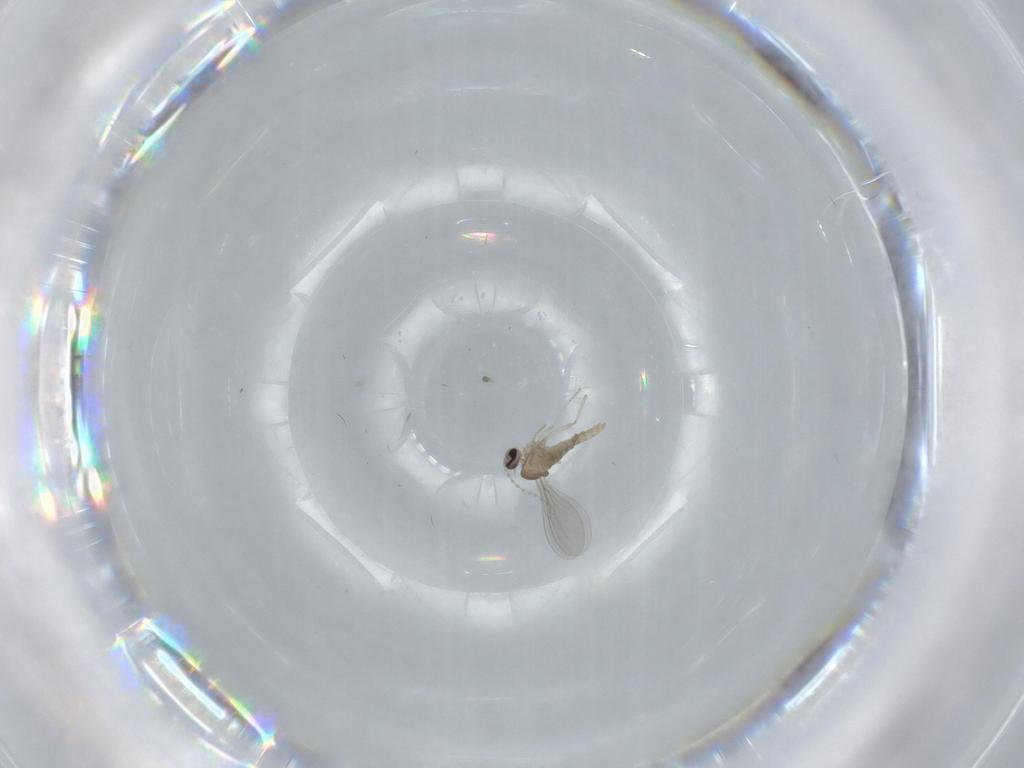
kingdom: Animalia
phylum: Arthropoda
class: Insecta
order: Diptera
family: Cecidomyiidae
